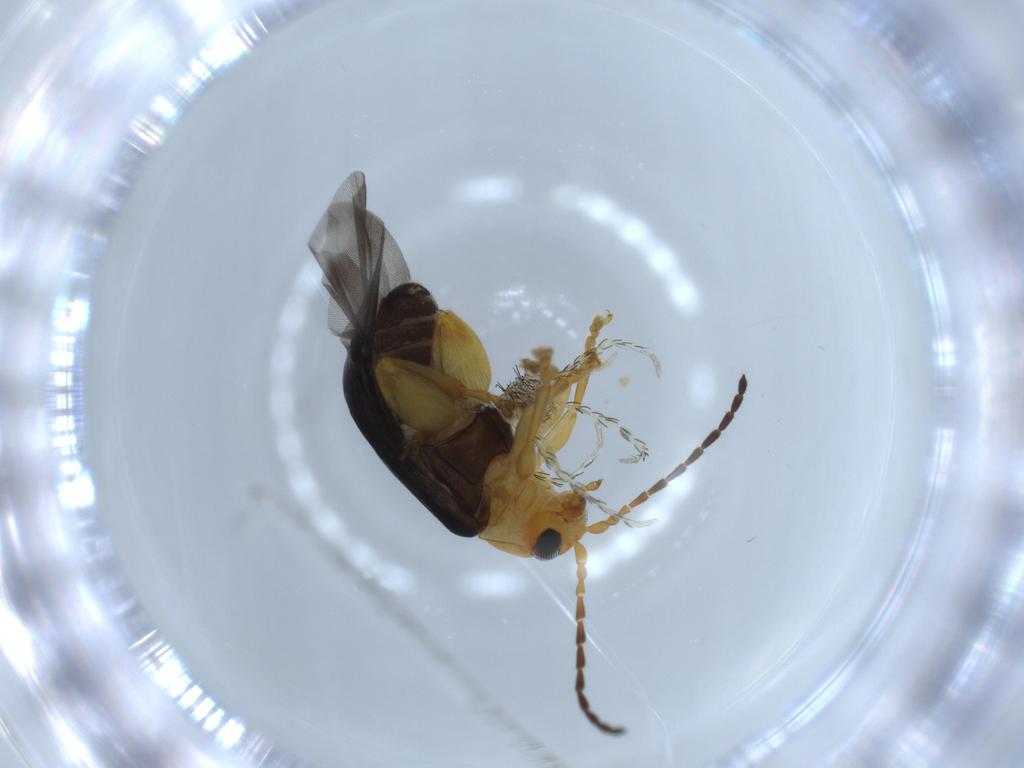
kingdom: Animalia
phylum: Arthropoda
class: Insecta
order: Coleoptera
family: Chrysomelidae
